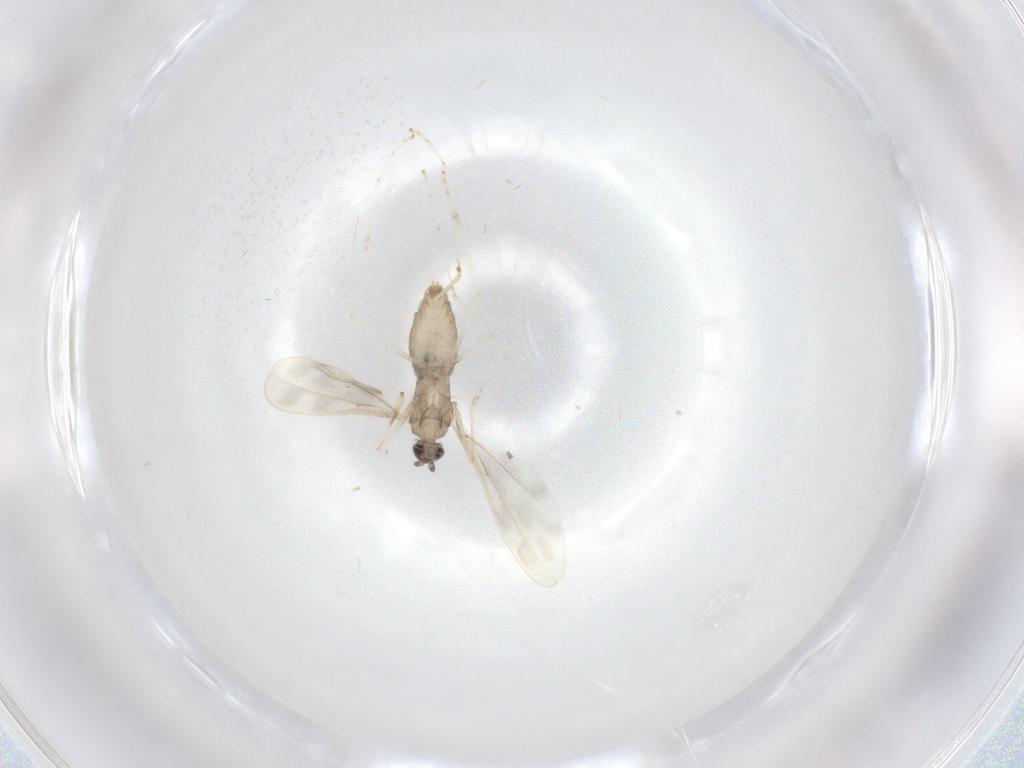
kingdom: Animalia
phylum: Arthropoda
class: Insecta
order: Diptera
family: Cecidomyiidae
